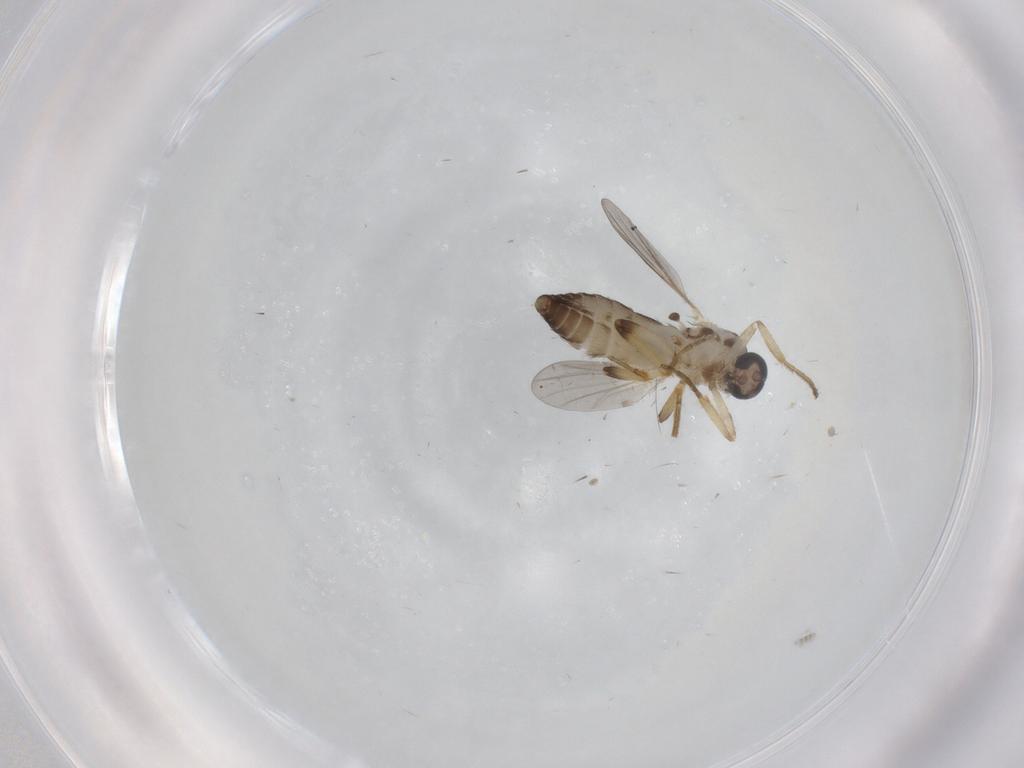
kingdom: Animalia
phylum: Arthropoda
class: Insecta
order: Diptera
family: Ceratopogonidae
